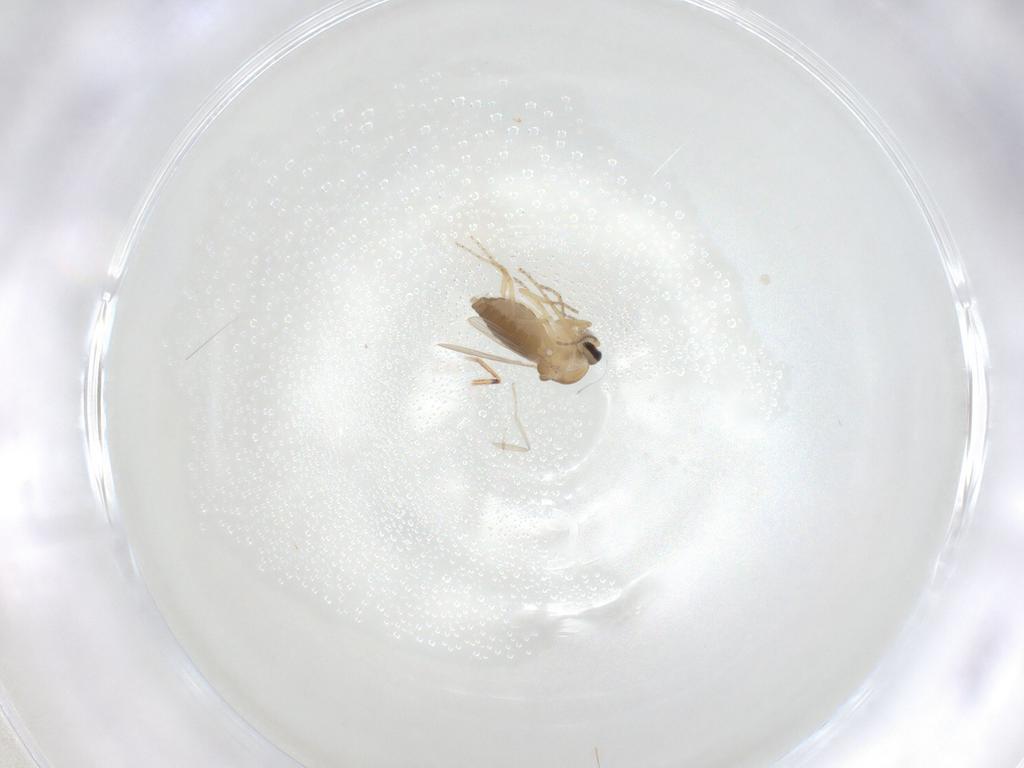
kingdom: Animalia
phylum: Arthropoda
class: Insecta
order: Diptera
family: Ceratopogonidae
